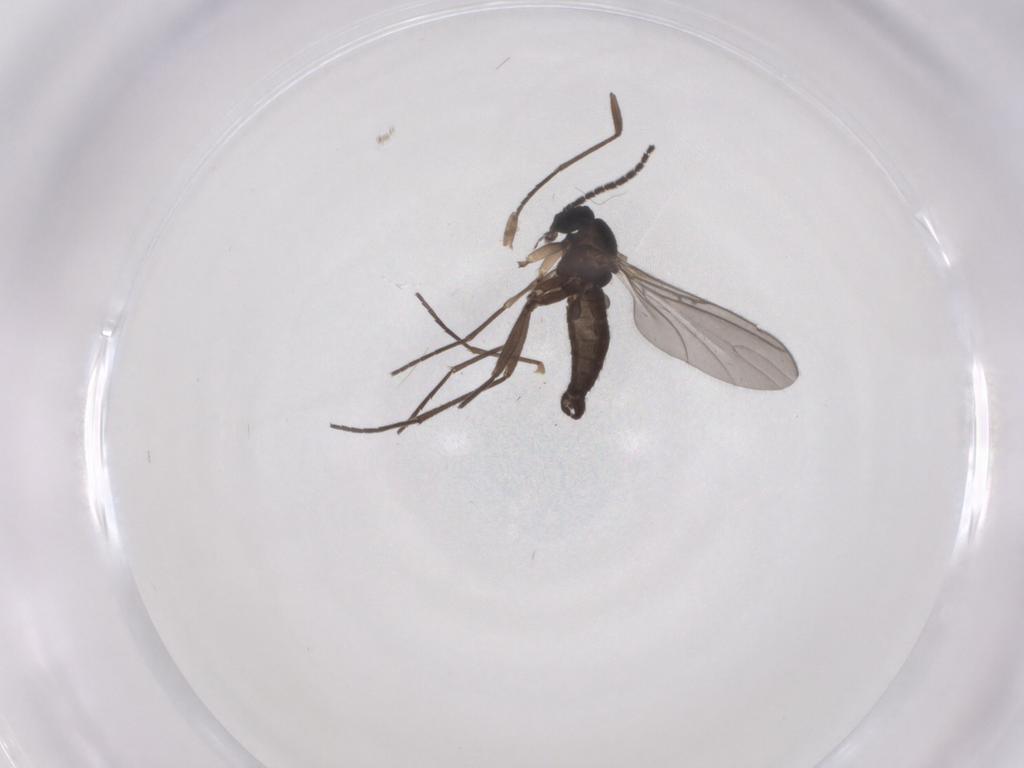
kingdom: Animalia
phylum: Arthropoda
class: Insecta
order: Diptera
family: Sciaridae
